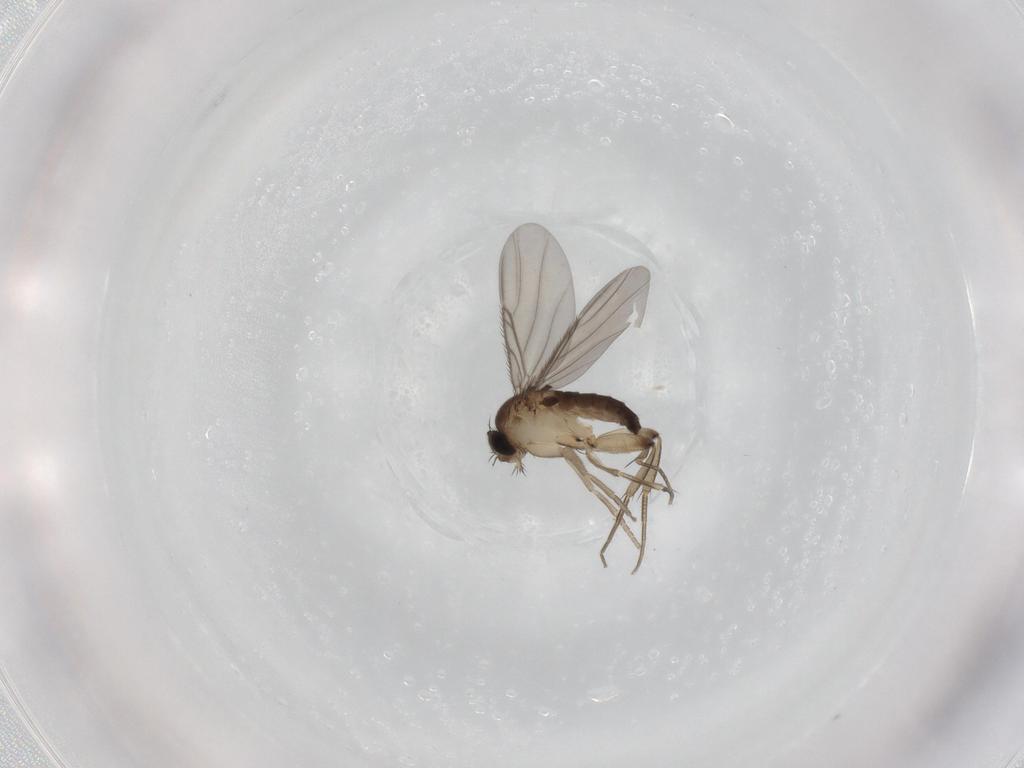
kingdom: Animalia
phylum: Arthropoda
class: Insecta
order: Diptera
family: Phoridae
